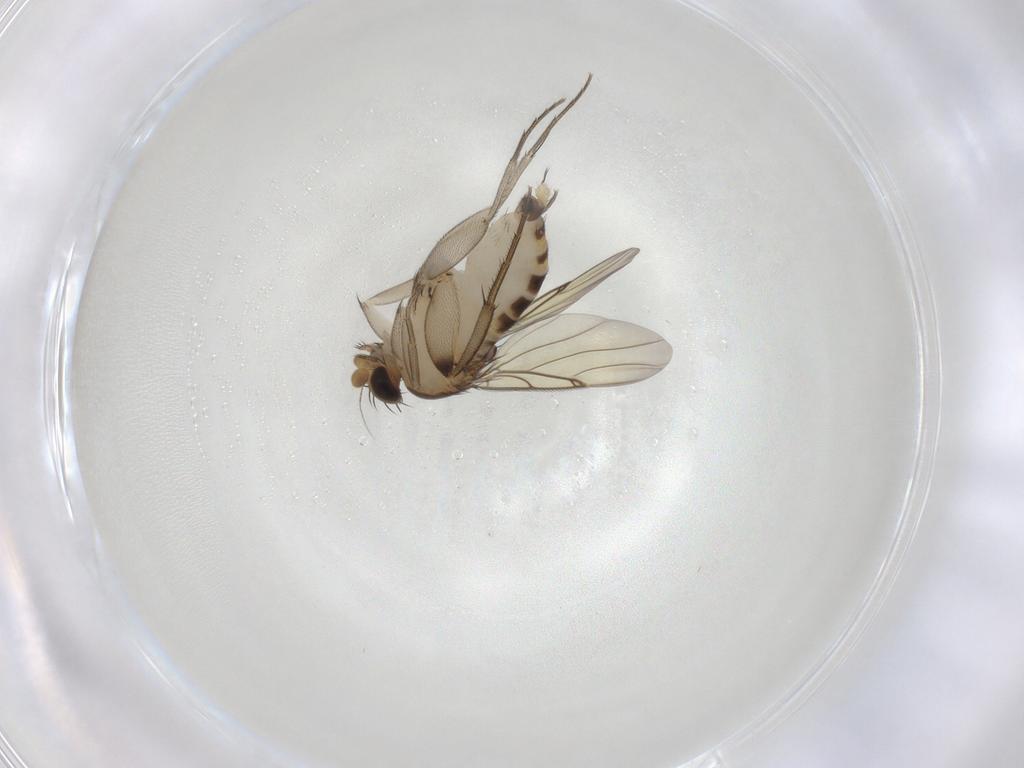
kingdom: Animalia
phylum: Arthropoda
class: Insecta
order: Diptera
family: Phoridae
